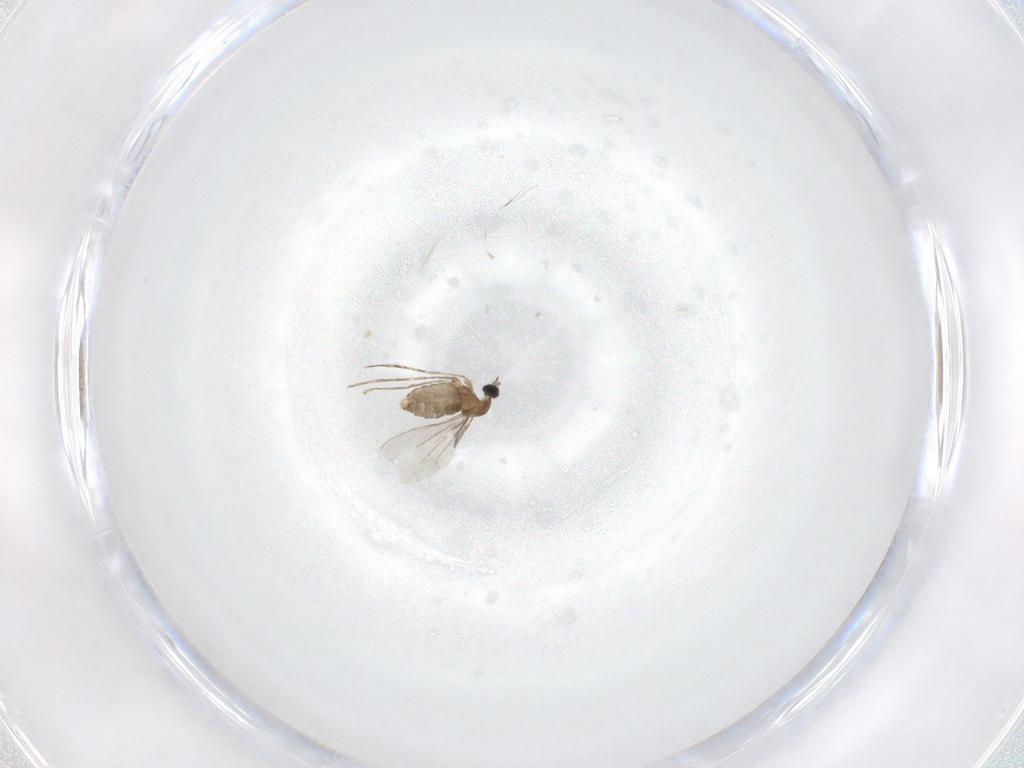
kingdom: Animalia
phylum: Arthropoda
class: Insecta
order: Diptera
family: Cecidomyiidae
